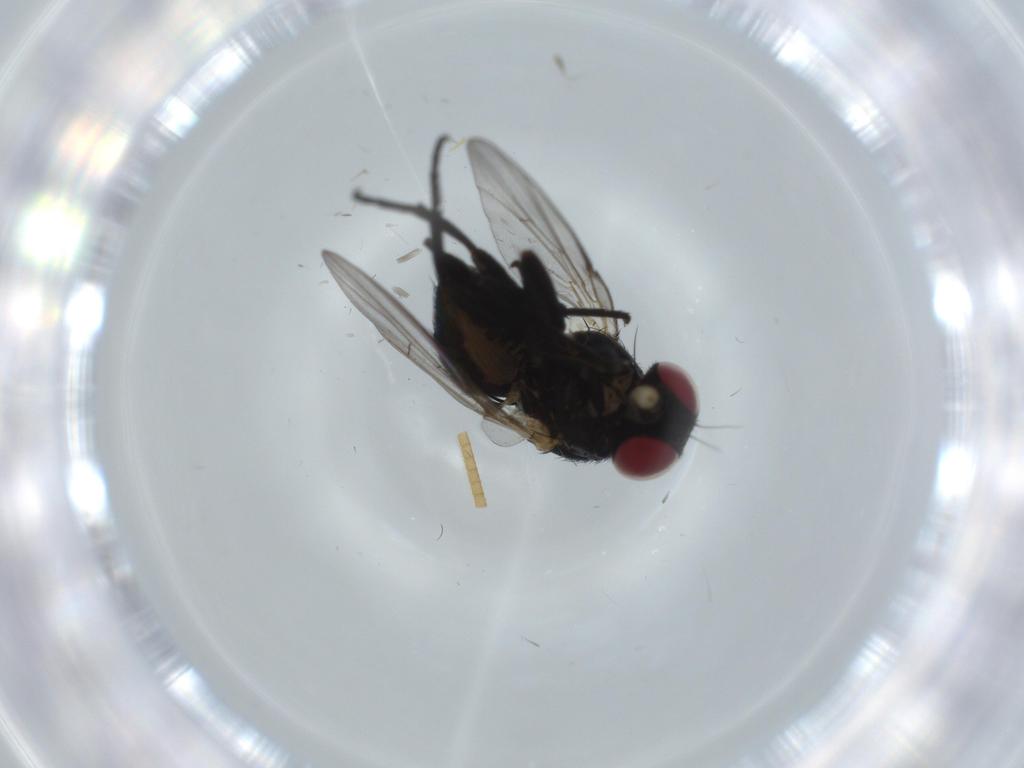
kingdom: Animalia
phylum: Arthropoda
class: Insecta
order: Diptera
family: Agromyzidae
